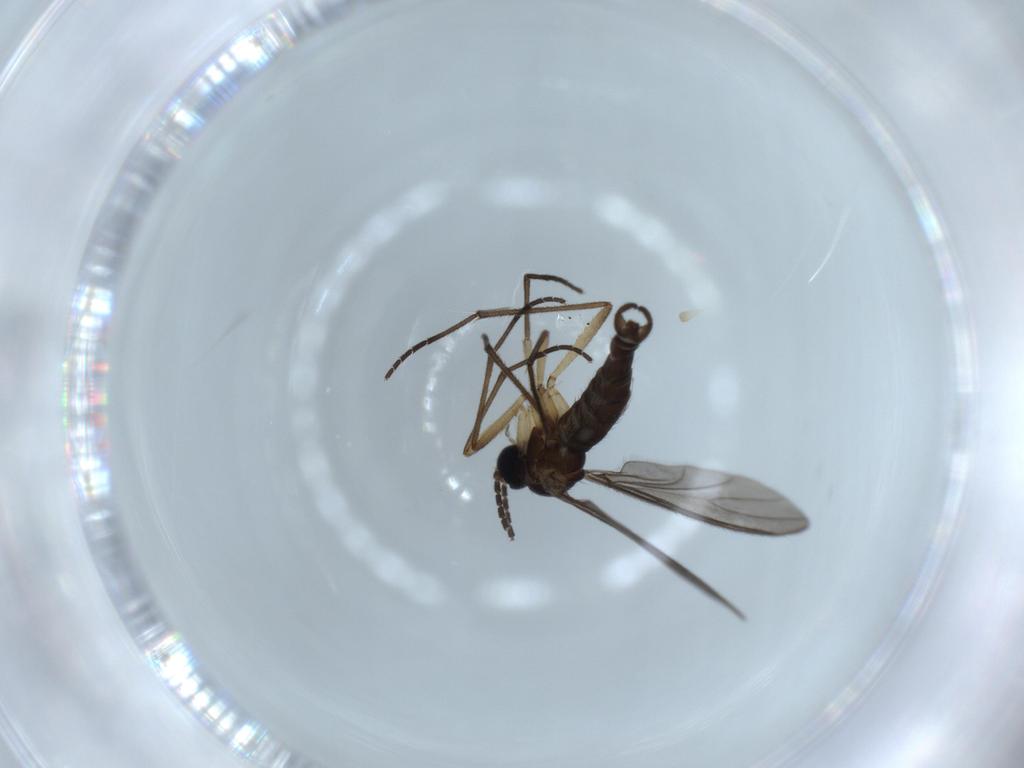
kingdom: Animalia
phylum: Arthropoda
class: Insecta
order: Diptera
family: Sciaridae
